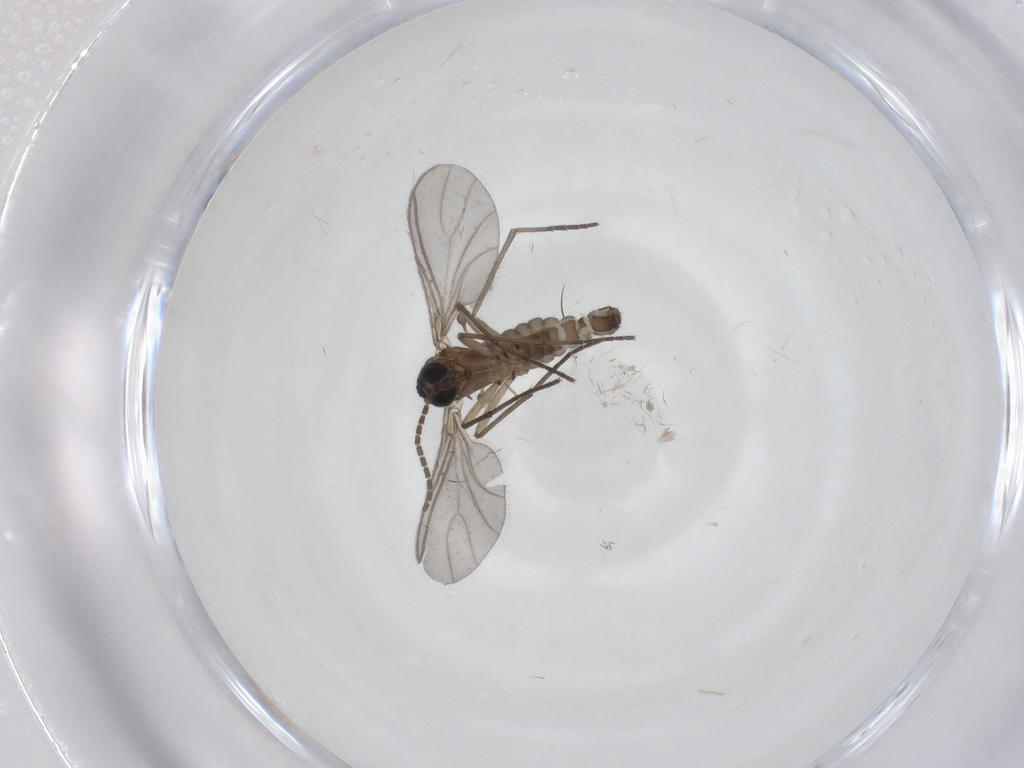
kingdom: Animalia
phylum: Arthropoda
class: Insecta
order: Diptera
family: Sciaridae
